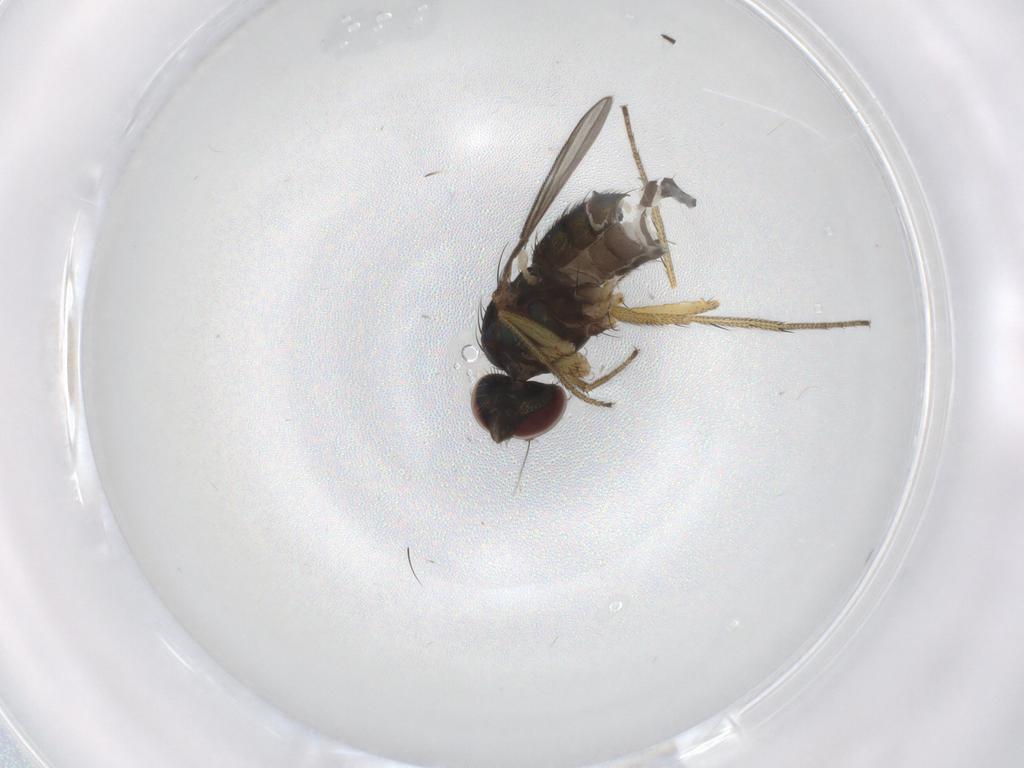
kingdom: Animalia
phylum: Arthropoda
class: Insecta
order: Diptera
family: Dolichopodidae
